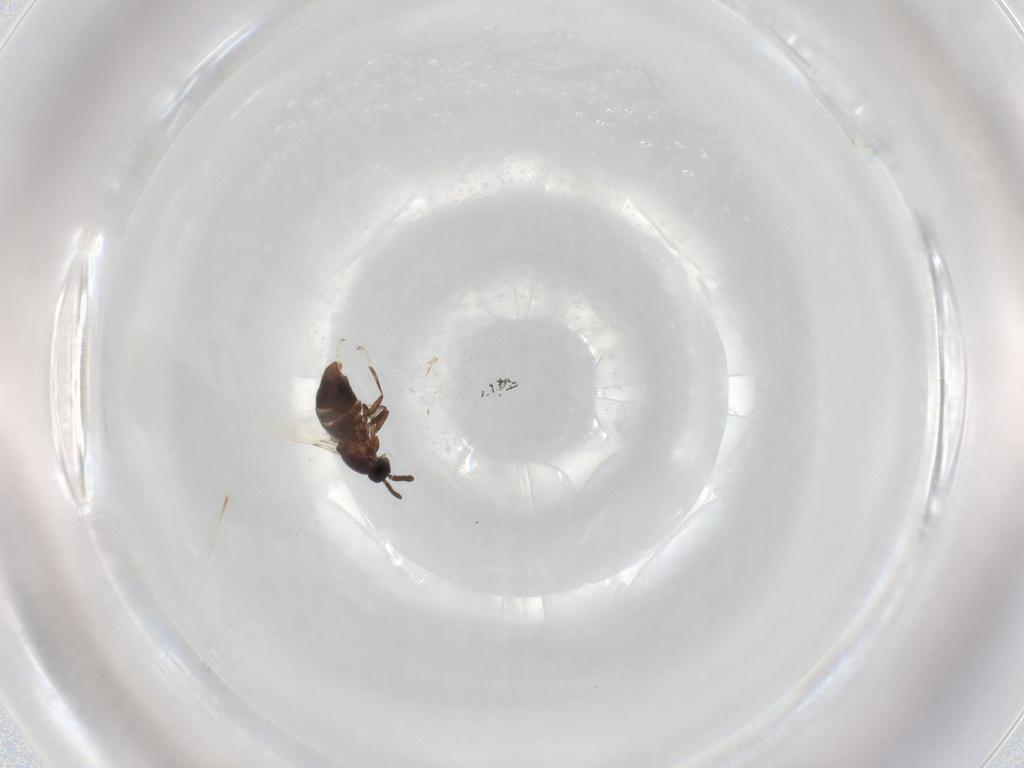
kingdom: Animalia
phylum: Arthropoda
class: Insecta
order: Diptera
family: Scatopsidae
